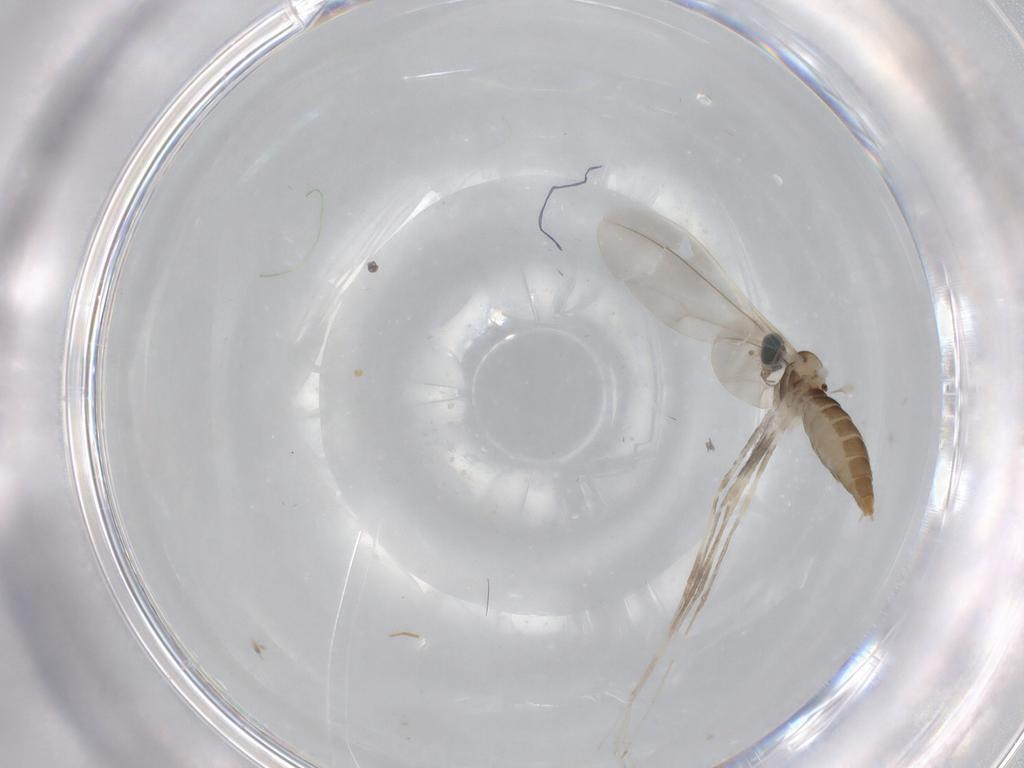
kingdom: Animalia
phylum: Arthropoda
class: Insecta
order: Diptera
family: Cecidomyiidae
